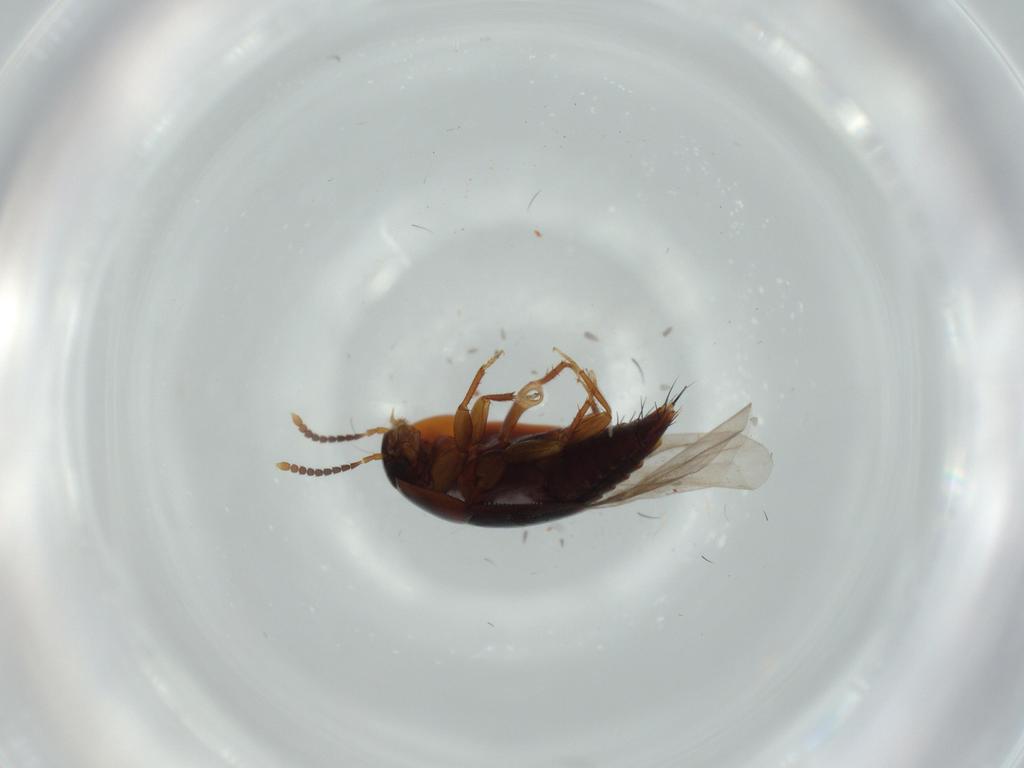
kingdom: Animalia
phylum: Arthropoda
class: Insecta
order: Coleoptera
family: Staphylinidae
